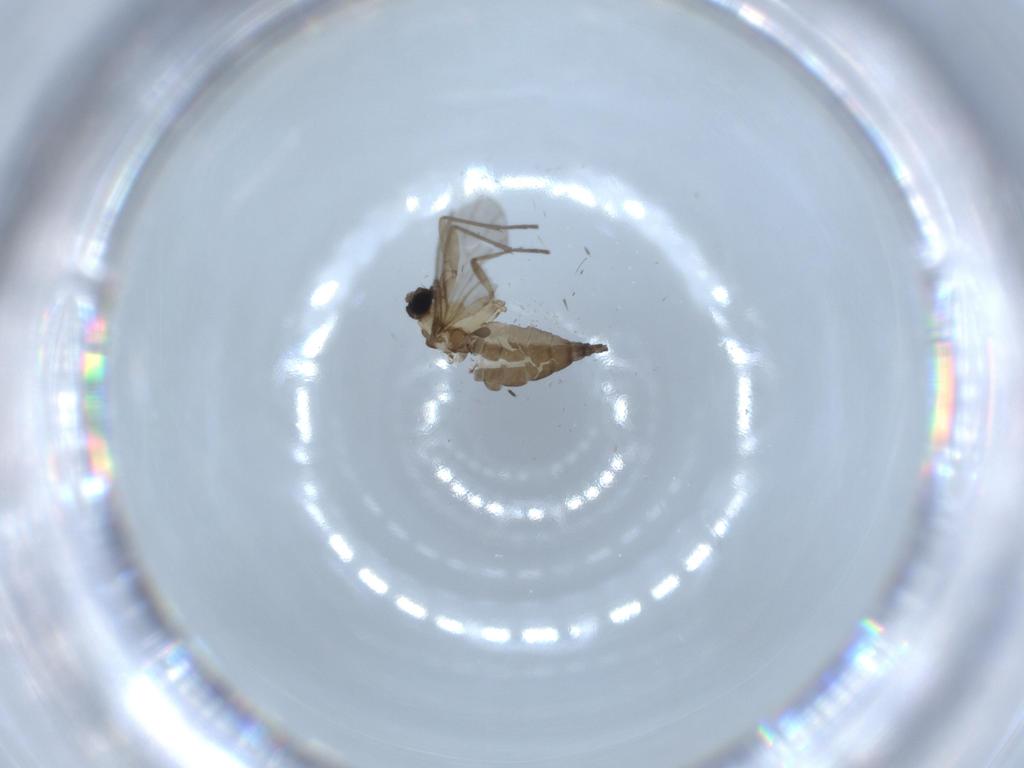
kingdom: Animalia
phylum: Arthropoda
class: Insecta
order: Diptera
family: Sciaridae
